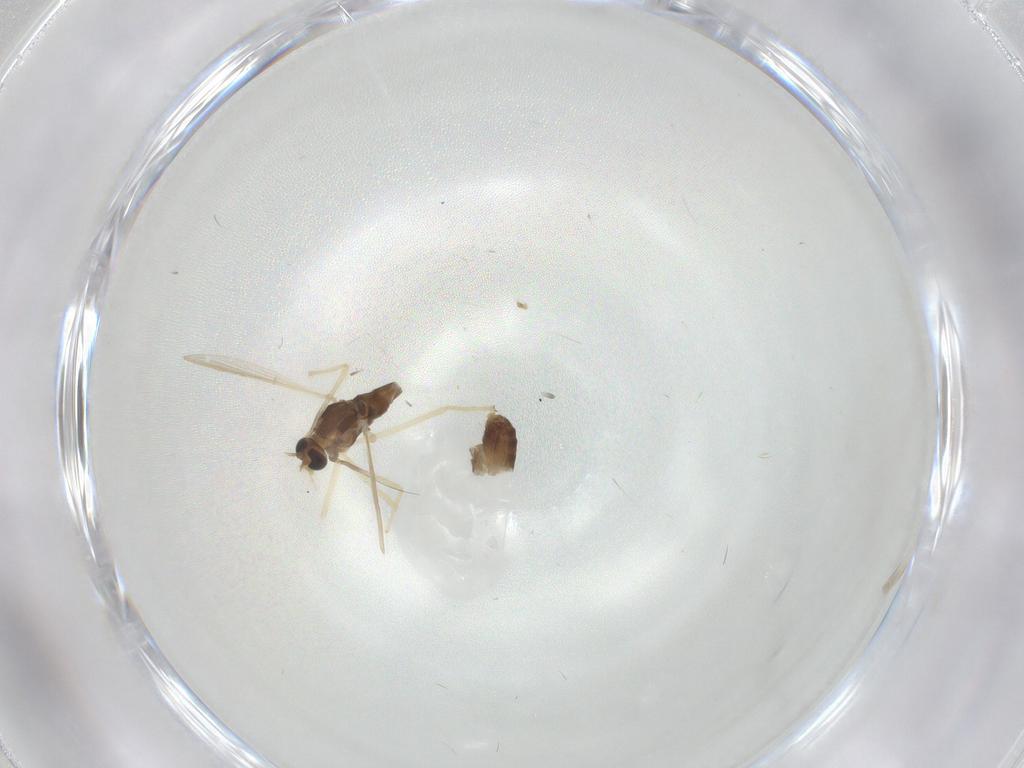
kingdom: Animalia
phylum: Arthropoda
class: Insecta
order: Diptera
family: Chironomidae
